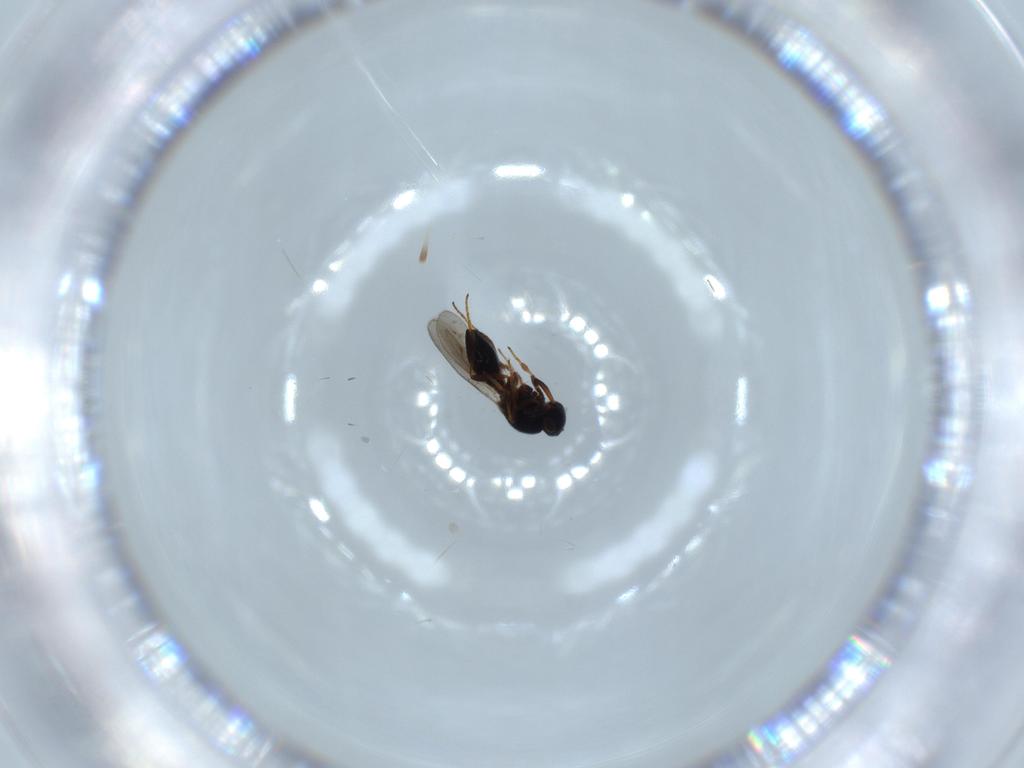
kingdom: Animalia
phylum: Arthropoda
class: Insecta
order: Hymenoptera
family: Platygastridae
